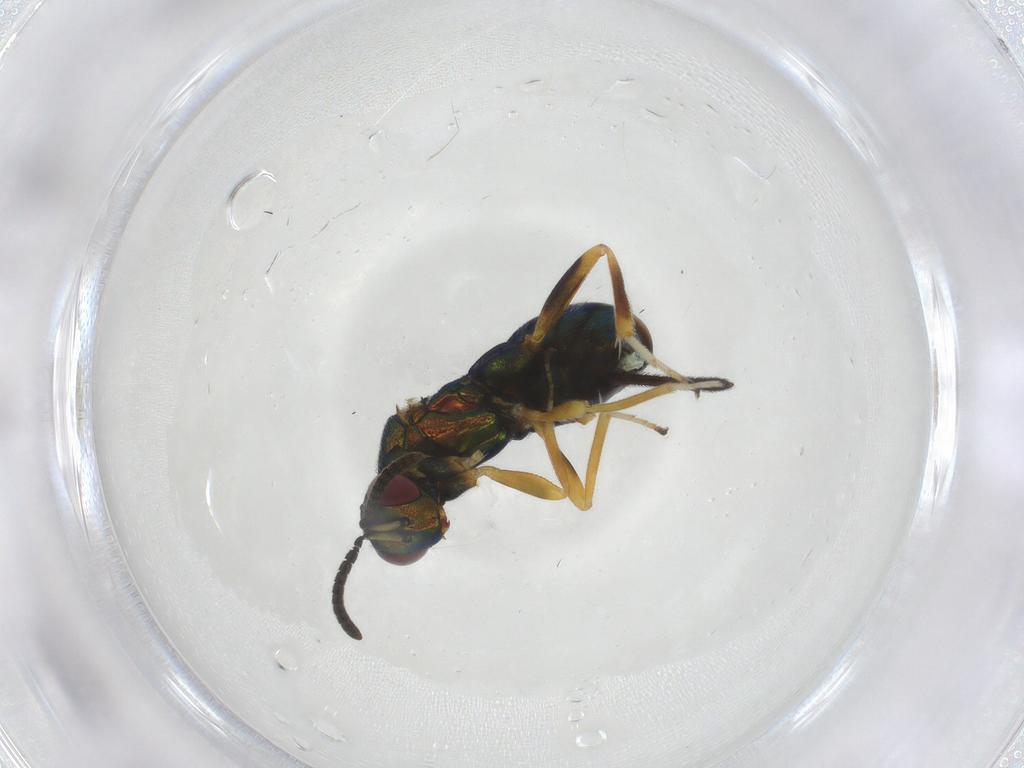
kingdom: Animalia
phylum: Arthropoda
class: Insecta
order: Hymenoptera
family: Torymidae
